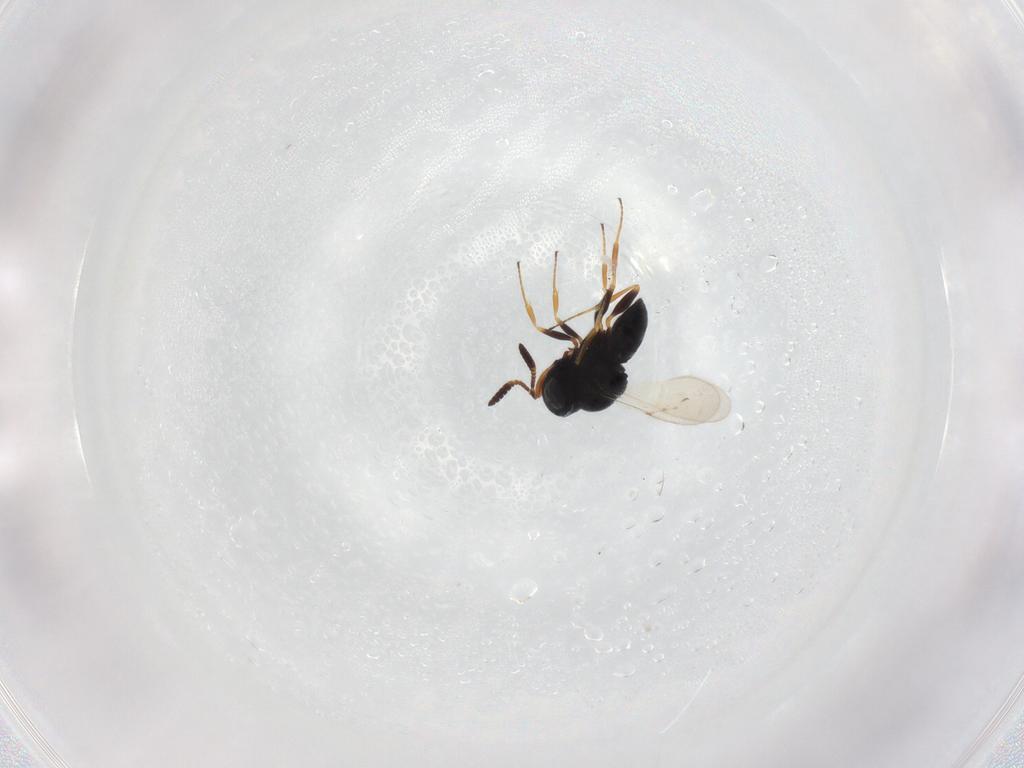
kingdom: Animalia
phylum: Arthropoda
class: Insecta
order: Hymenoptera
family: Scelionidae
